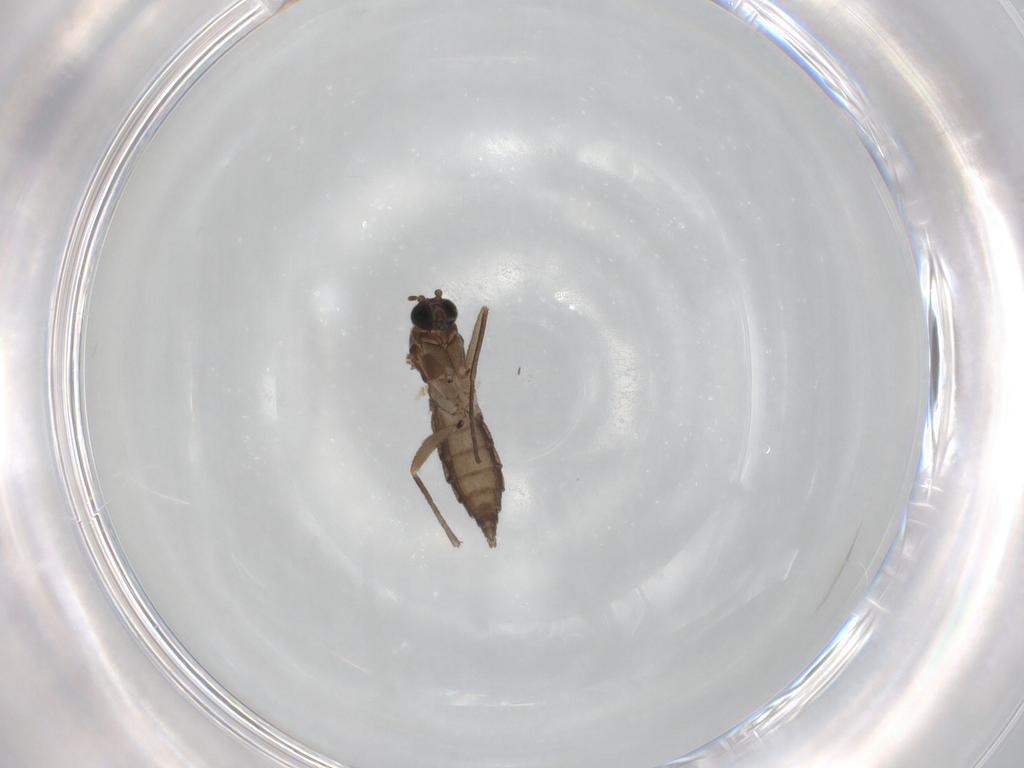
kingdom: Animalia
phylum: Arthropoda
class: Insecta
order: Diptera
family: Sciaridae
